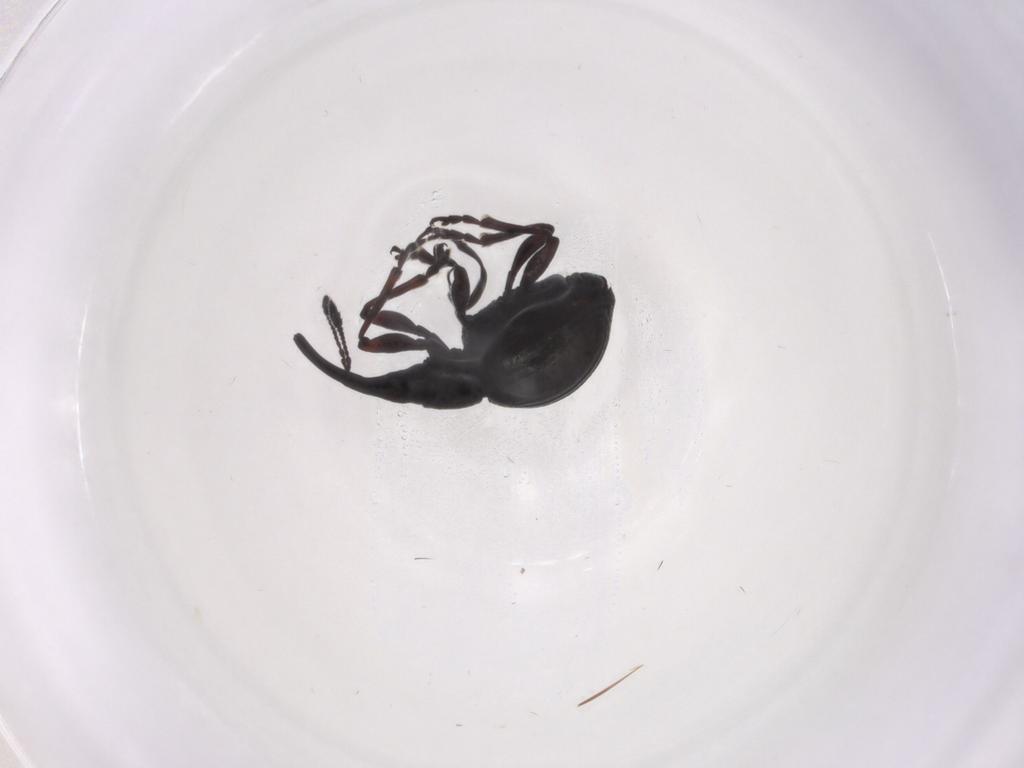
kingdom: Animalia
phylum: Arthropoda
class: Insecta
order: Coleoptera
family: Brentidae
